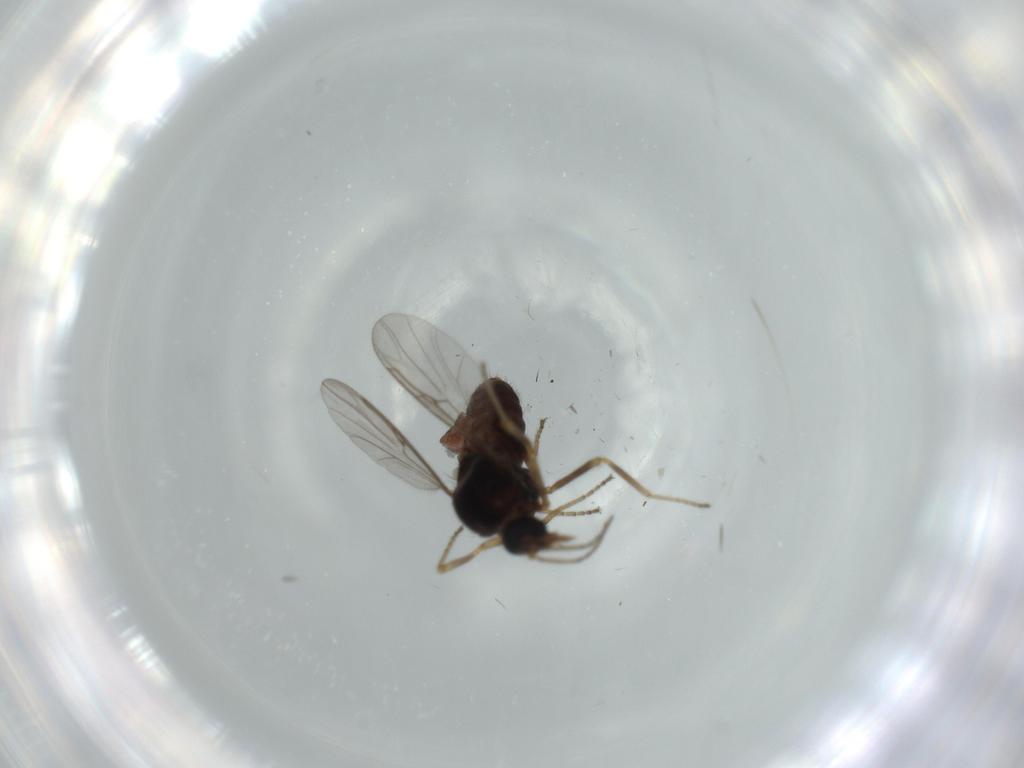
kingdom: Animalia
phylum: Arthropoda
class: Insecta
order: Diptera
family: Ceratopogonidae
